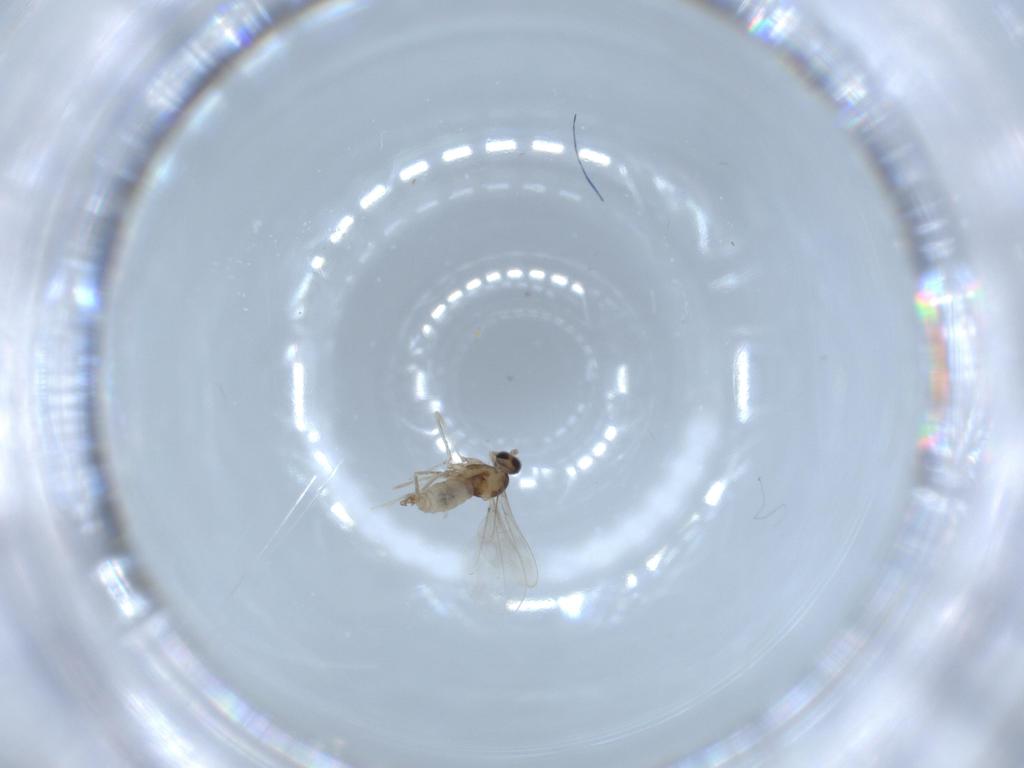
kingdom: Animalia
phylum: Arthropoda
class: Insecta
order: Diptera
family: Cecidomyiidae
